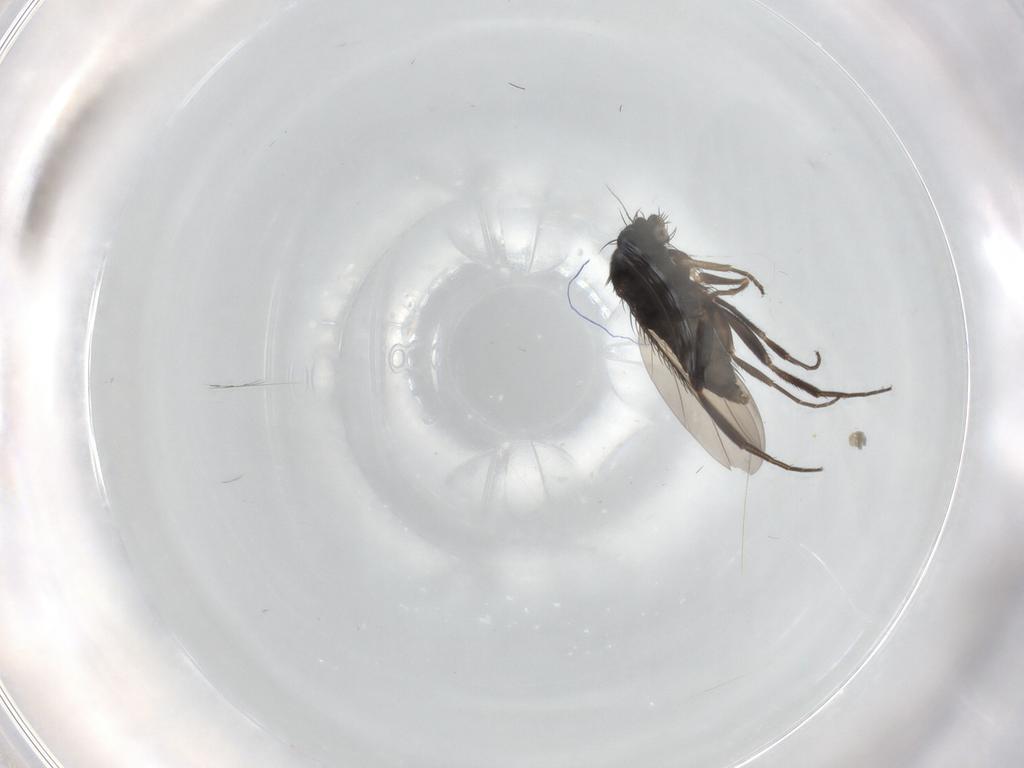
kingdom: Animalia
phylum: Arthropoda
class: Insecta
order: Diptera
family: Phoridae
